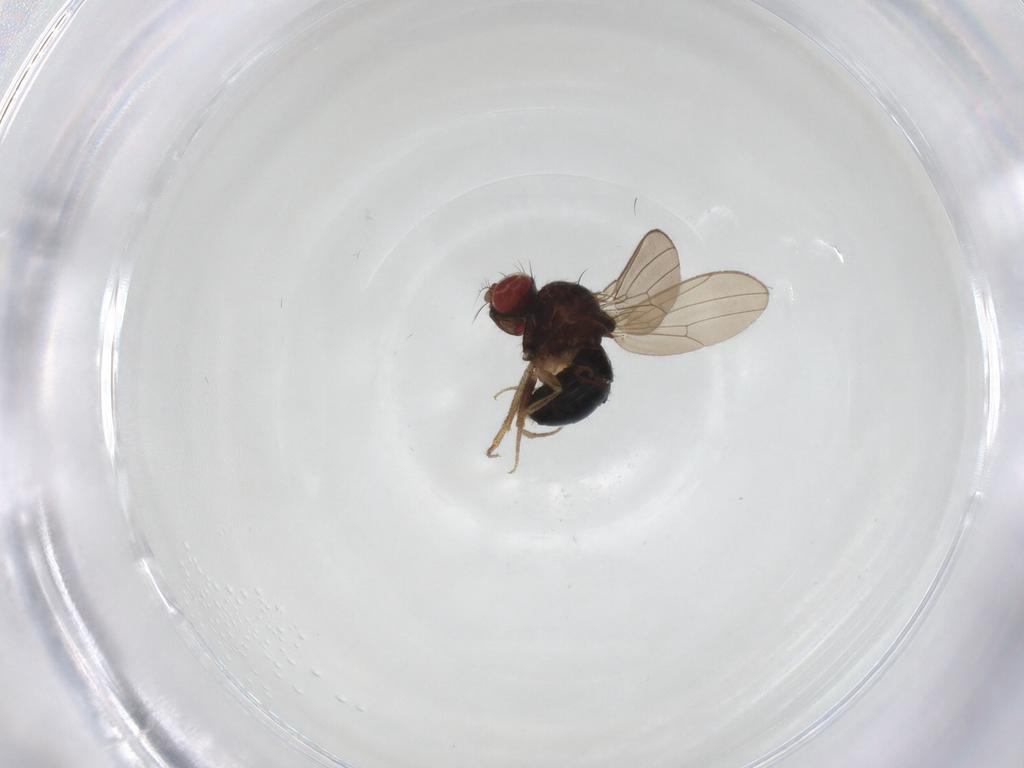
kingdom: Animalia
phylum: Arthropoda
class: Insecta
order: Diptera
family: Drosophilidae
